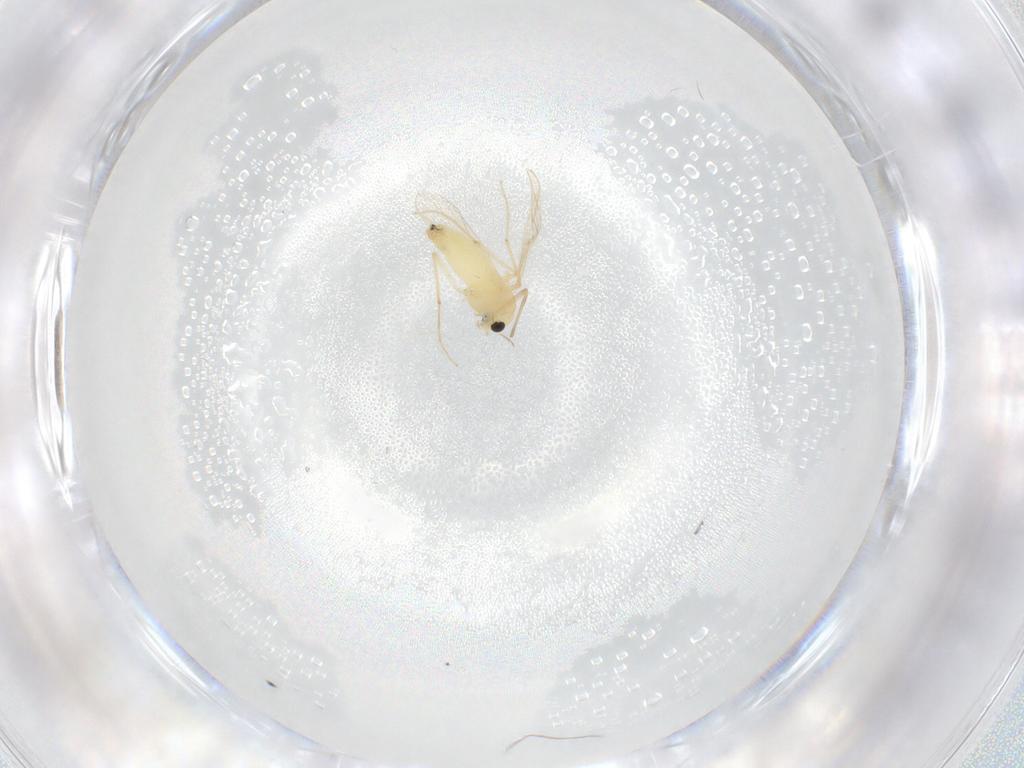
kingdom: Animalia
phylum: Arthropoda
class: Insecta
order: Diptera
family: Chironomidae
